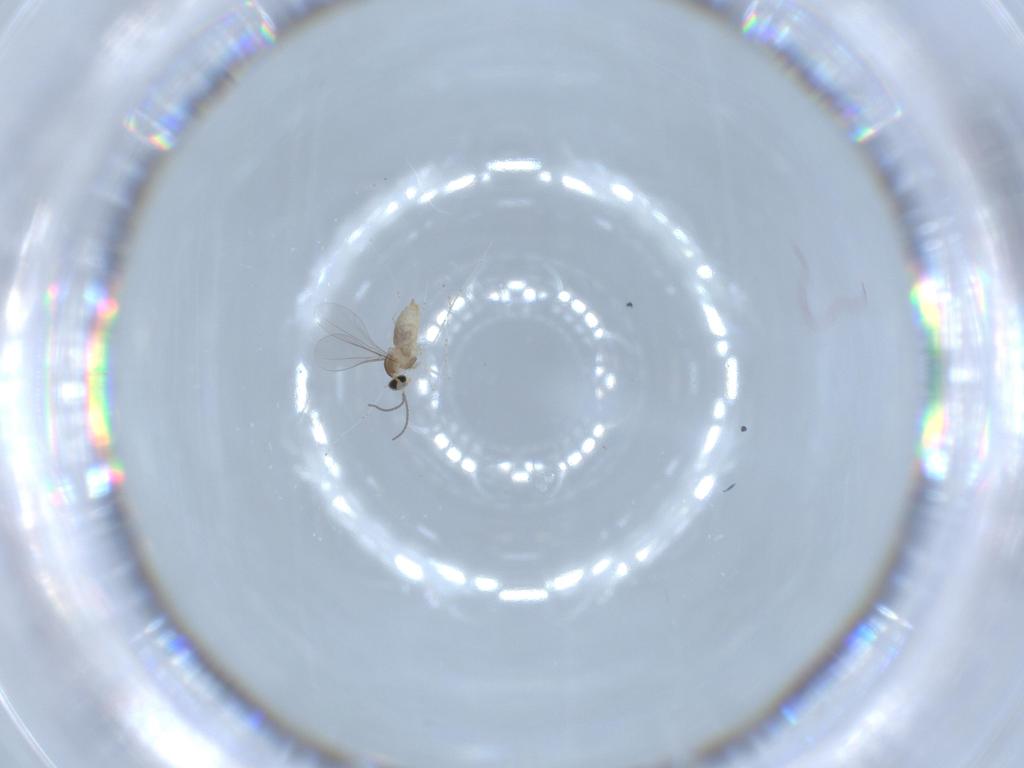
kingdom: Animalia
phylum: Arthropoda
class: Insecta
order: Diptera
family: Cecidomyiidae
